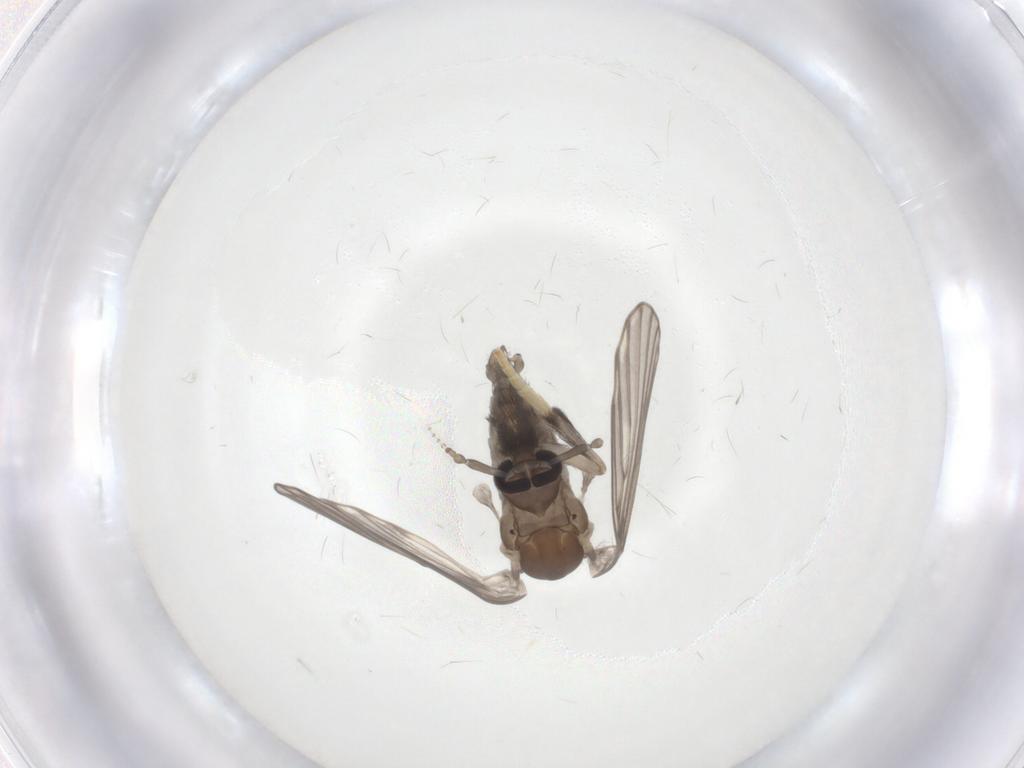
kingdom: Animalia
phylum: Arthropoda
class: Insecta
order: Diptera
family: Psychodidae
